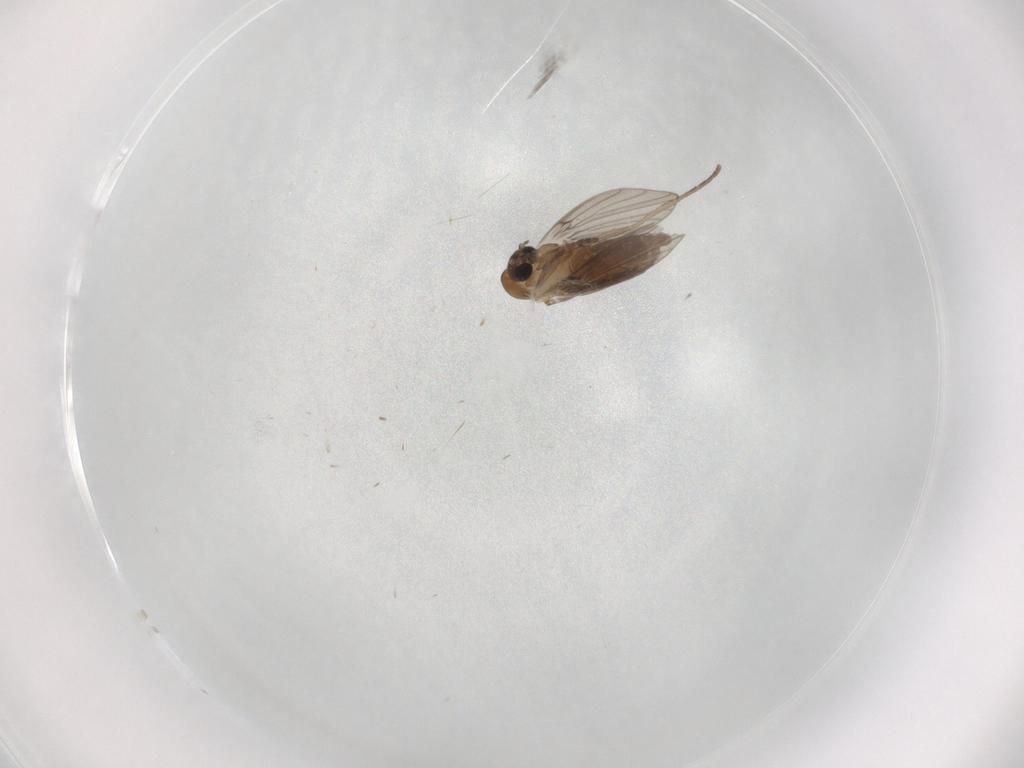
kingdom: Animalia
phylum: Arthropoda
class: Insecta
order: Diptera
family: Psychodidae
